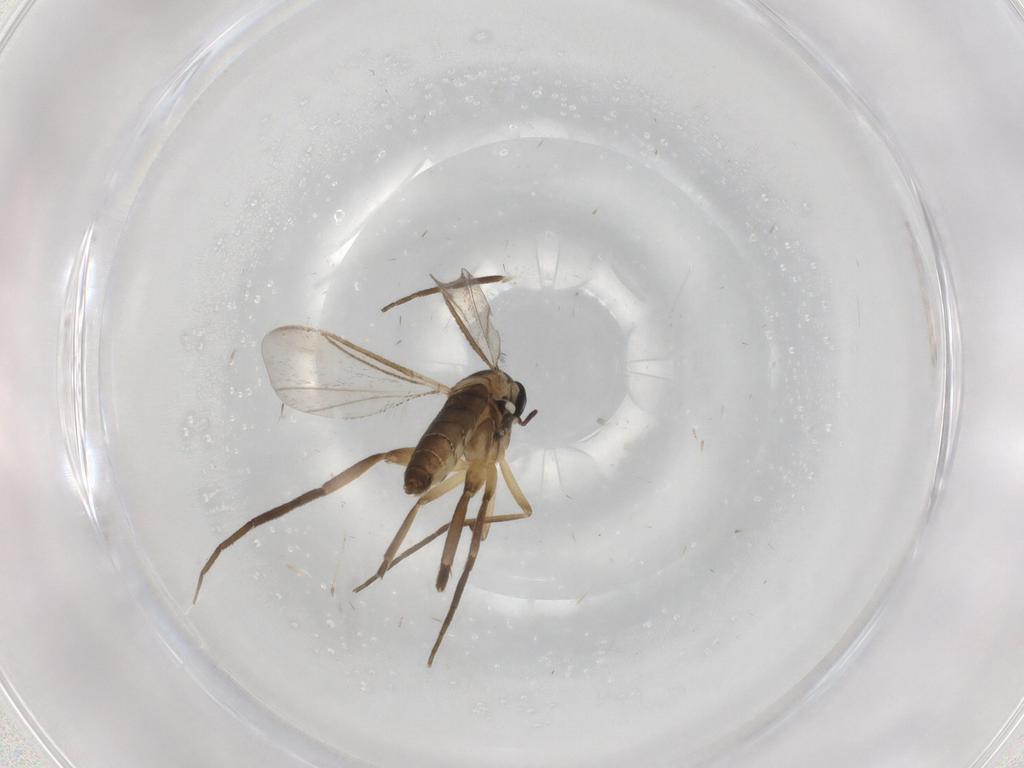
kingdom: Animalia
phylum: Arthropoda
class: Insecta
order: Diptera
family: Cecidomyiidae
